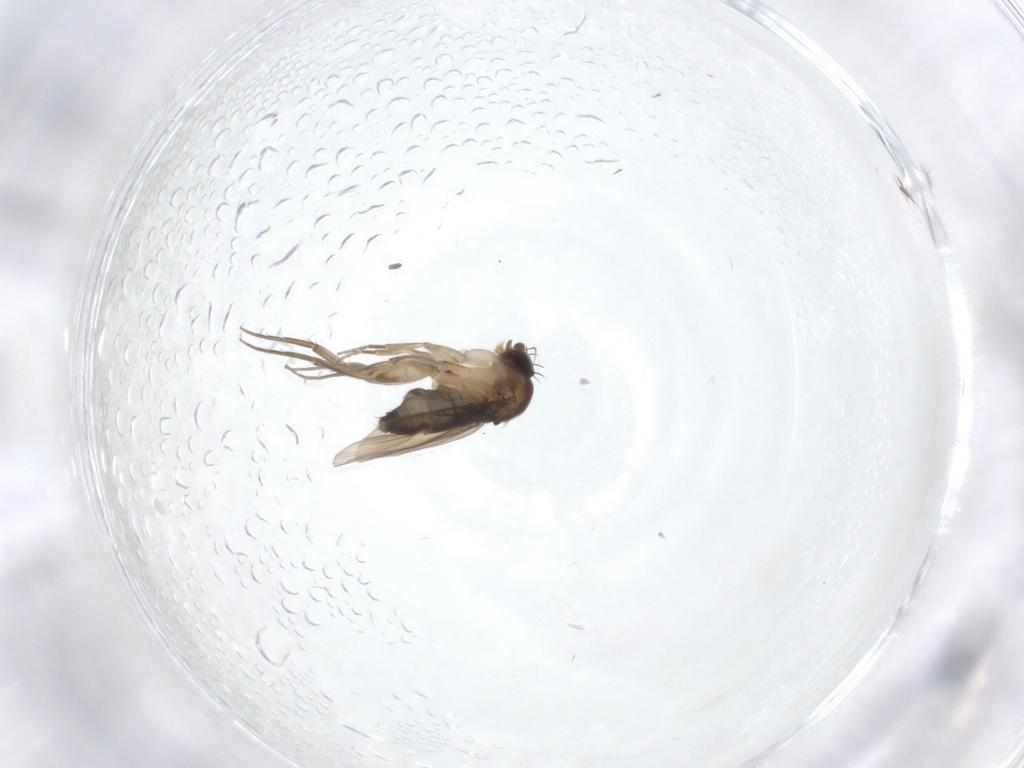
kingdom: Animalia
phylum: Arthropoda
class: Insecta
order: Diptera
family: Phoridae
